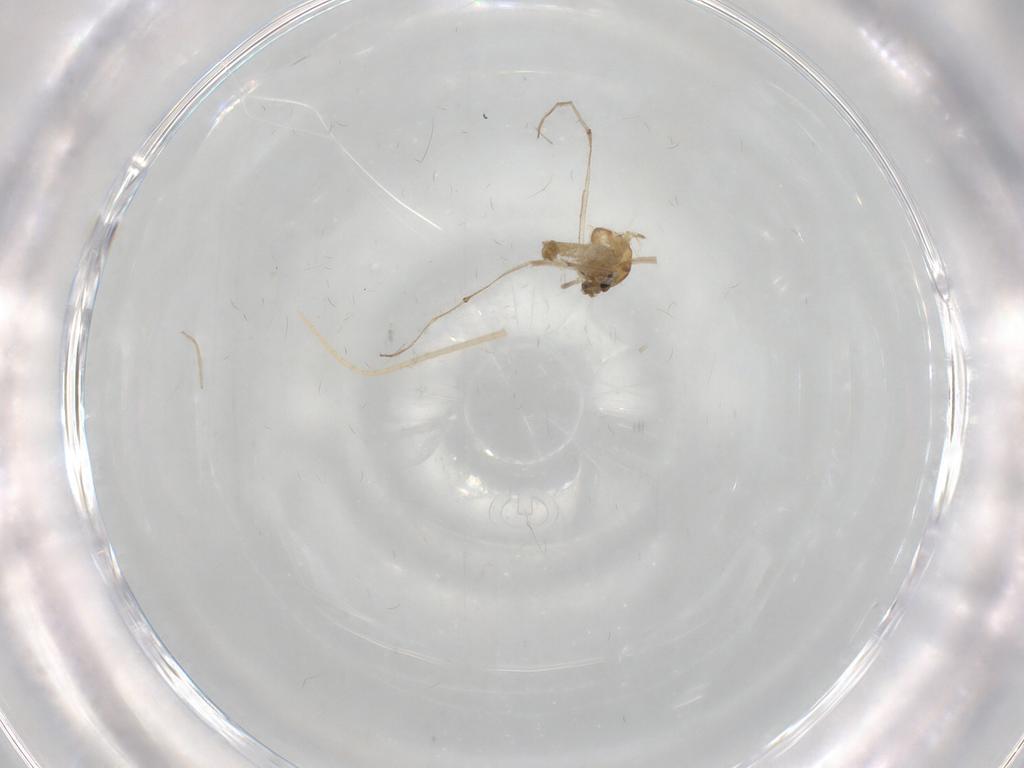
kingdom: Animalia
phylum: Arthropoda
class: Insecta
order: Diptera
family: Chironomidae
